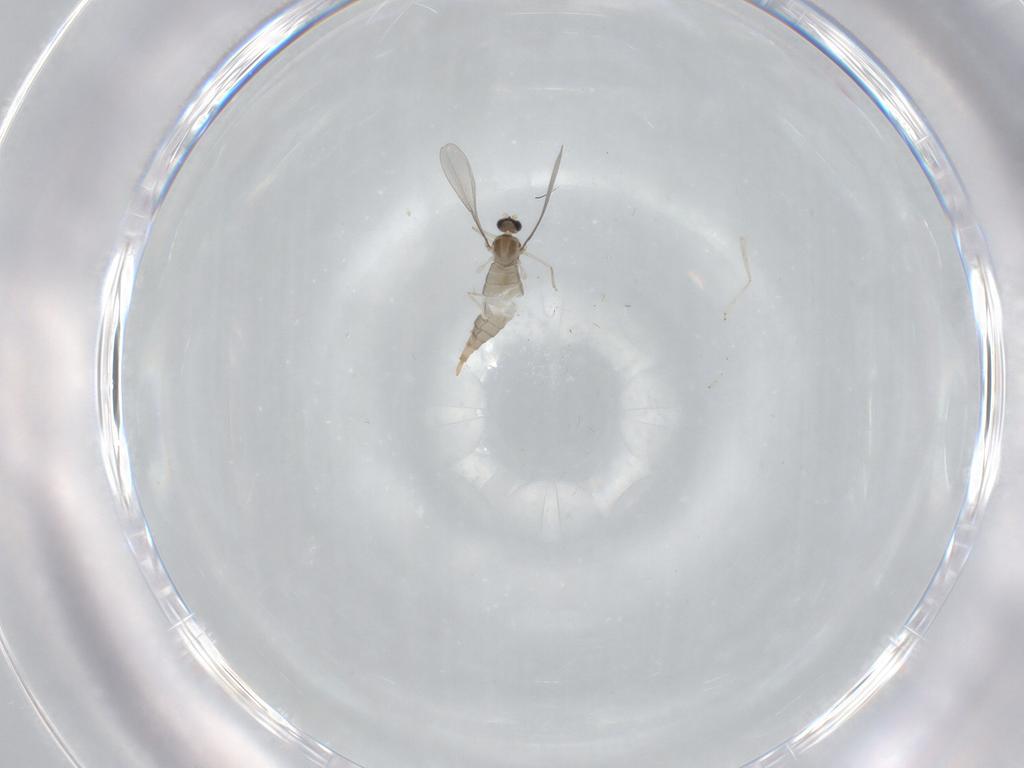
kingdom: Animalia
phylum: Arthropoda
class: Insecta
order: Diptera
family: Cecidomyiidae
